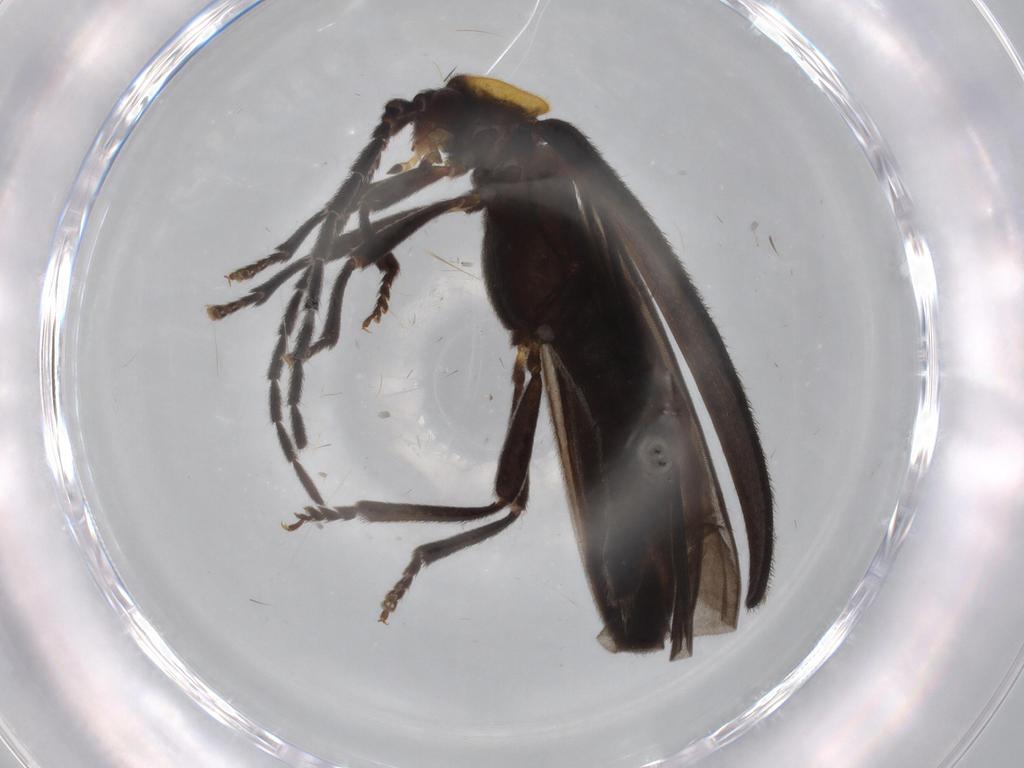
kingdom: Animalia
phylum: Arthropoda
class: Insecta
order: Coleoptera
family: Lycidae
